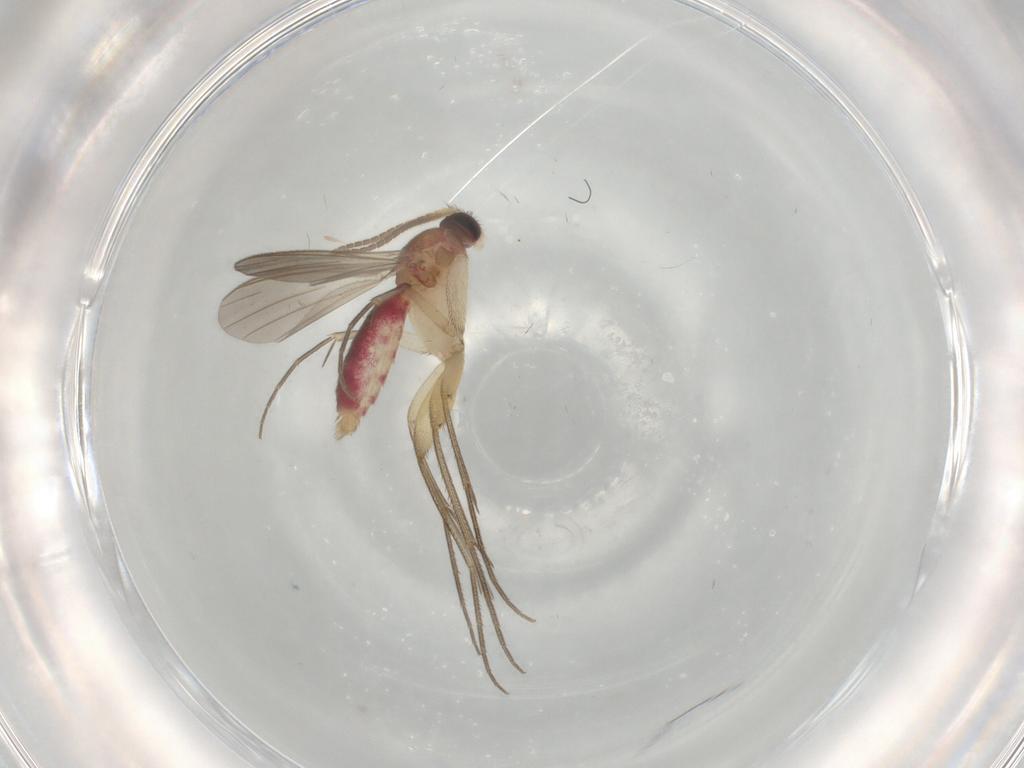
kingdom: Animalia
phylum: Arthropoda
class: Insecta
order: Diptera
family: Mycetophilidae
